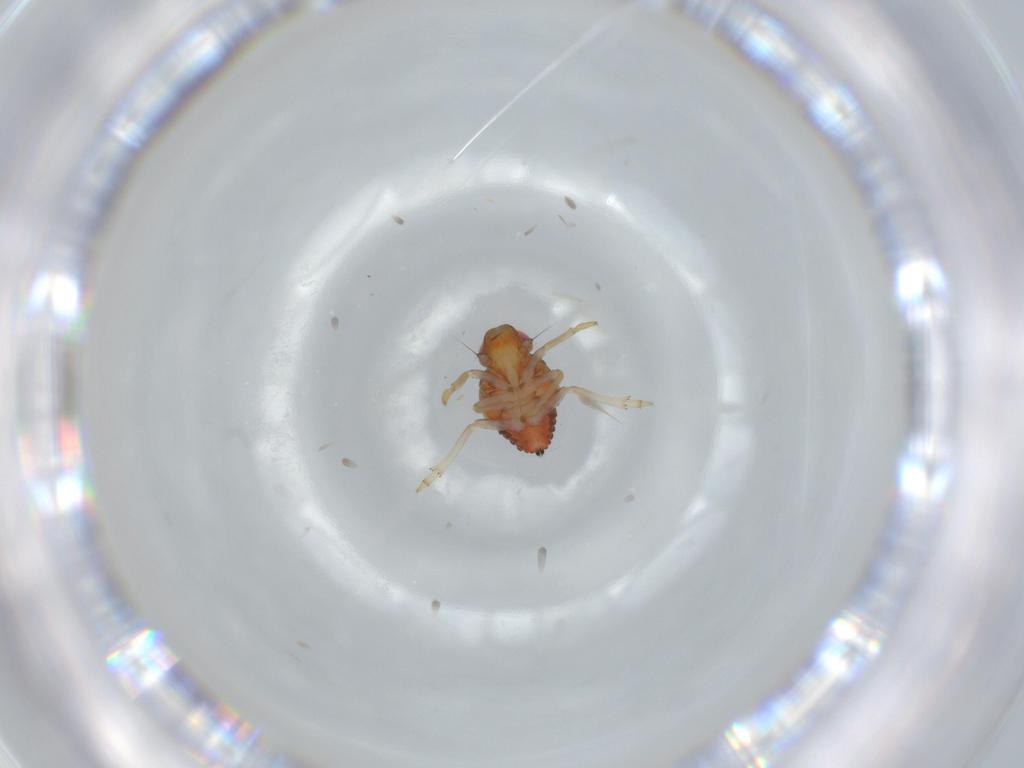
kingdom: Animalia
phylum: Arthropoda
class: Insecta
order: Hemiptera
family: Issidae
